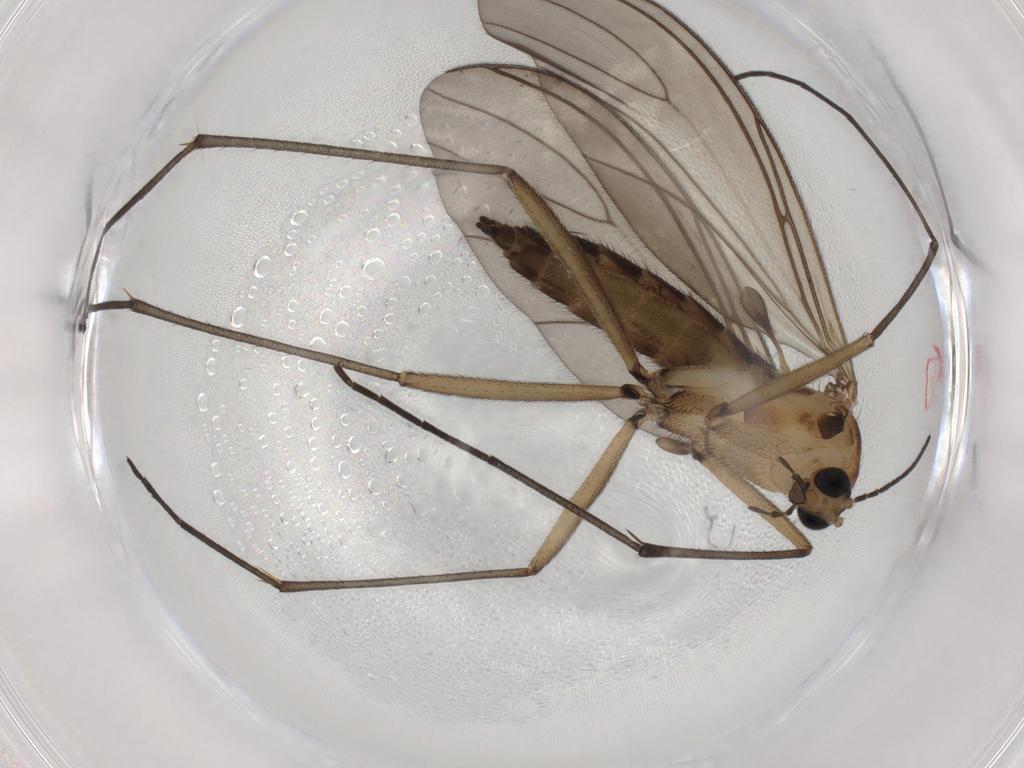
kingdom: Animalia
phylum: Arthropoda
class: Insecta
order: Diptera
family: Sciaridae
